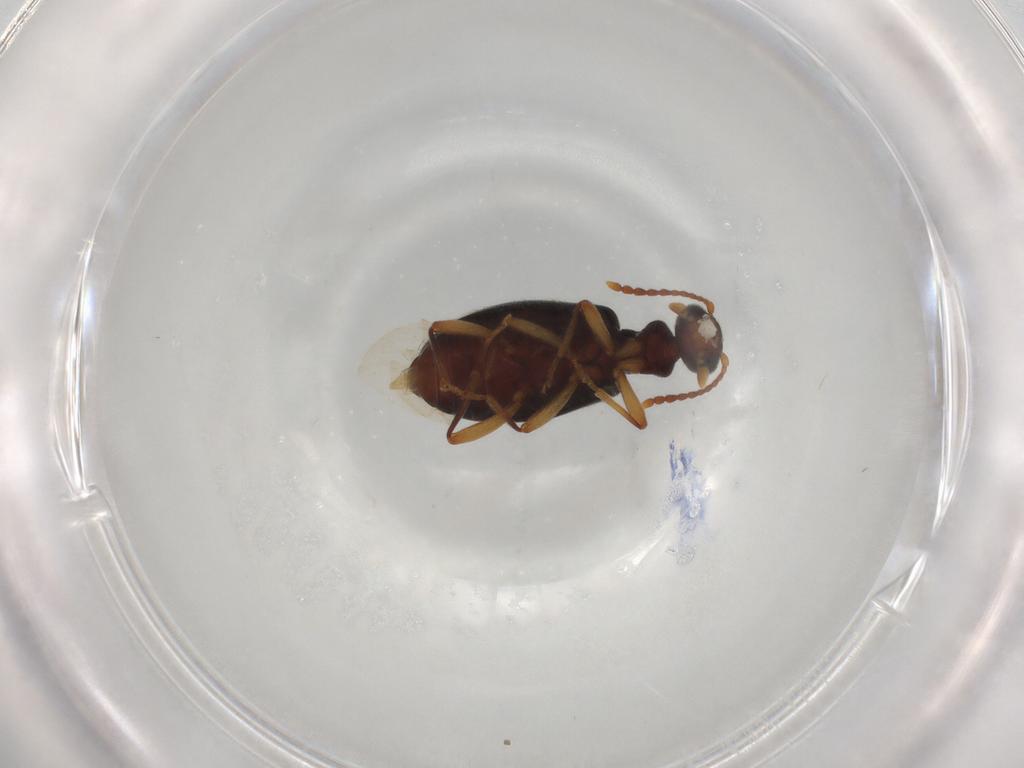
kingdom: Animalia
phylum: Arthropoda
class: Insecta
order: Coleoptera
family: Anthicidae
